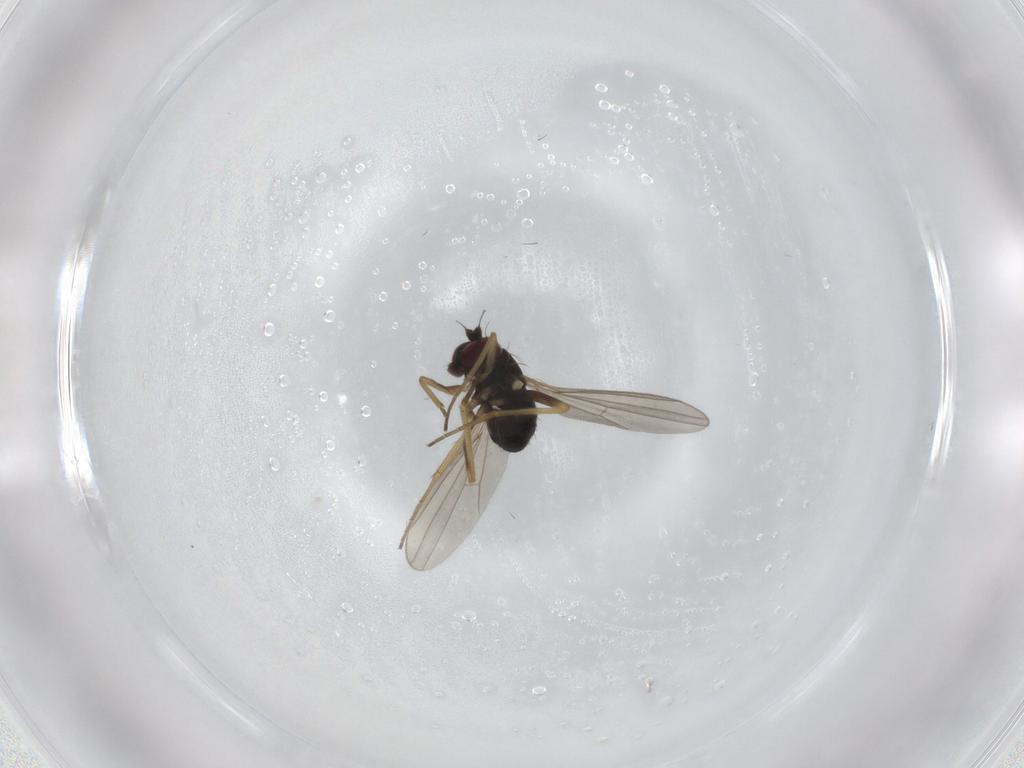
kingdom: Animalia
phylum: Arthropoda
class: Insecta
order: Diptera
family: Dolichopodidae
